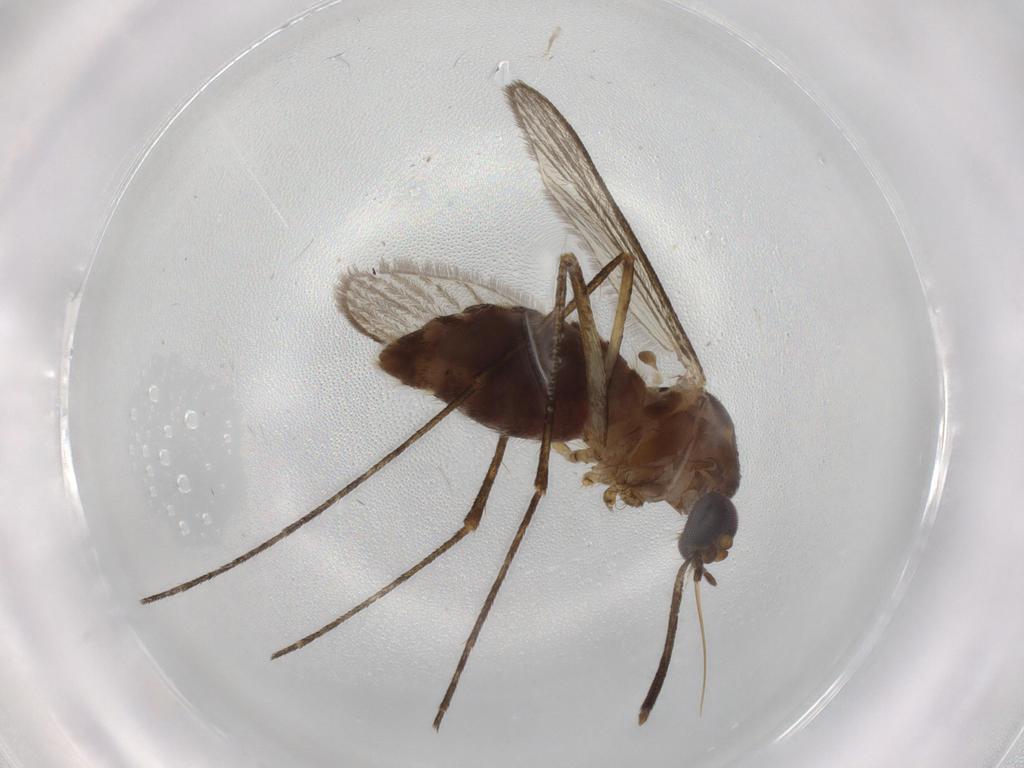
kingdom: Animalia
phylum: Arthropoda
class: Insecta
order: Diptera
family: Culicidae
